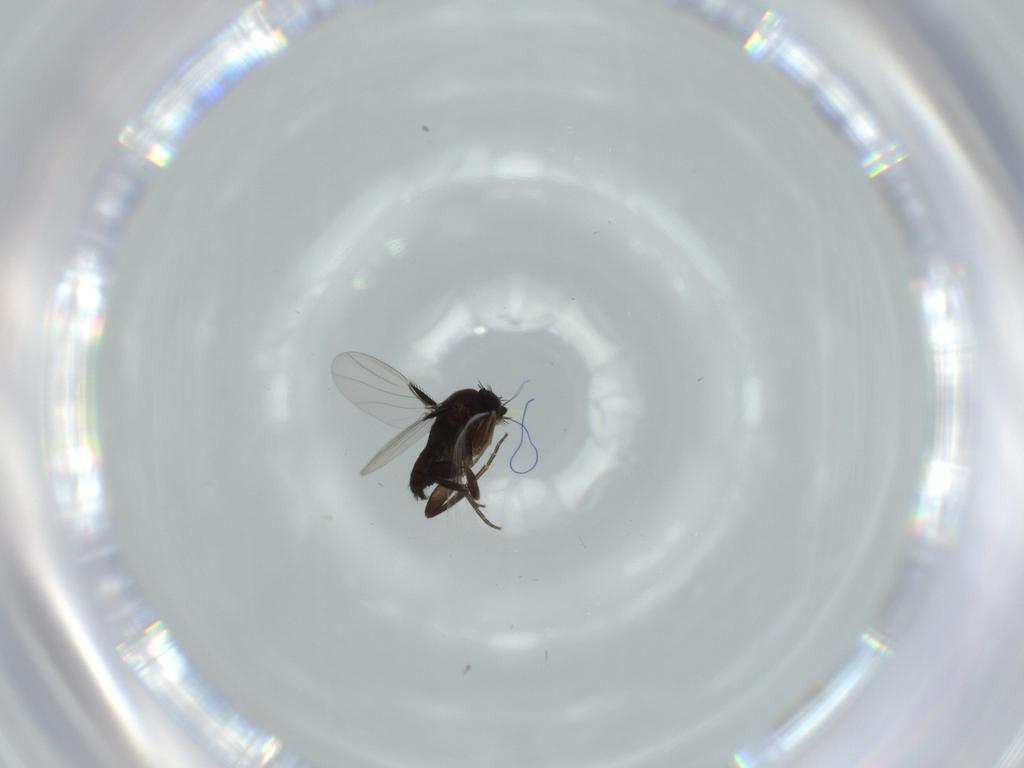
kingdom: Animalia
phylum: Arthropoda
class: Insecta
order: Diptera
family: Phoridae
